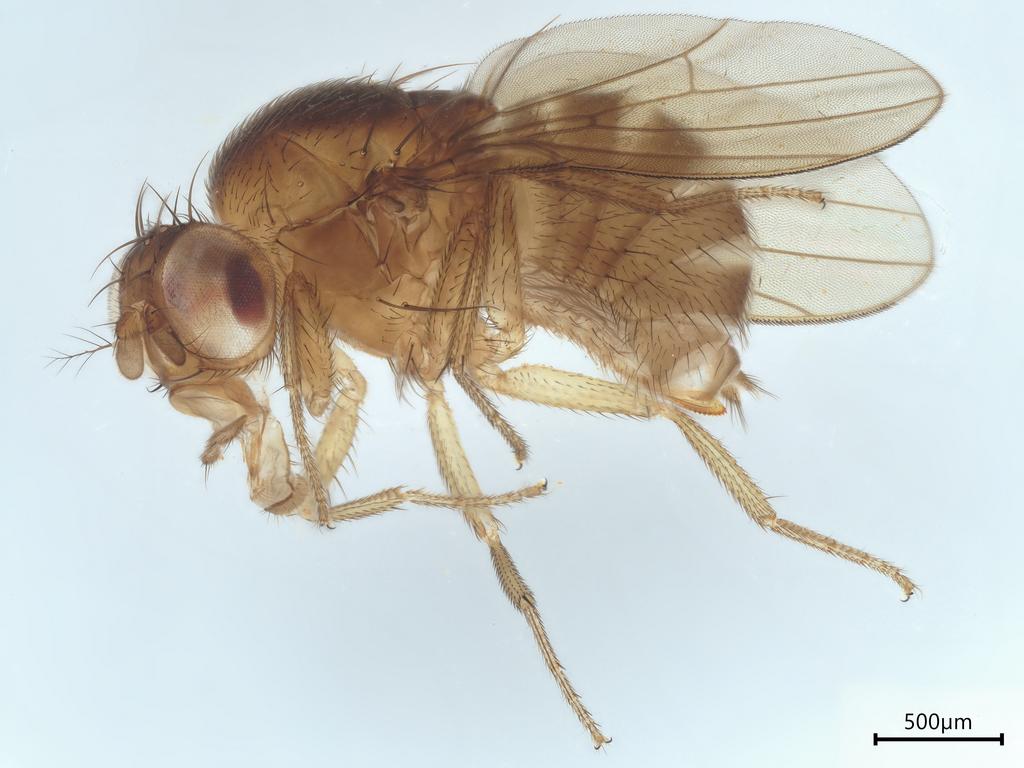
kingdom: Animalia
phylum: Arthropoda
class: Insecta
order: Diptera
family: Drosophilidae
